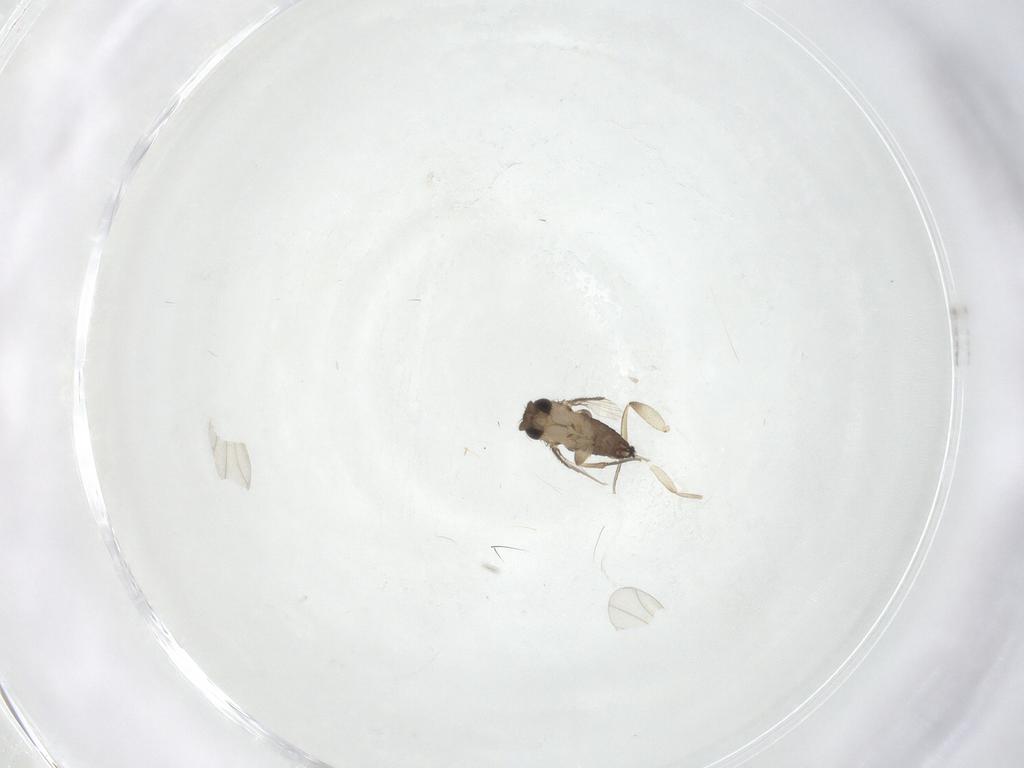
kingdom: Animalia
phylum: Arthropoda
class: Insecta
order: Diptera
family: Phoridae
